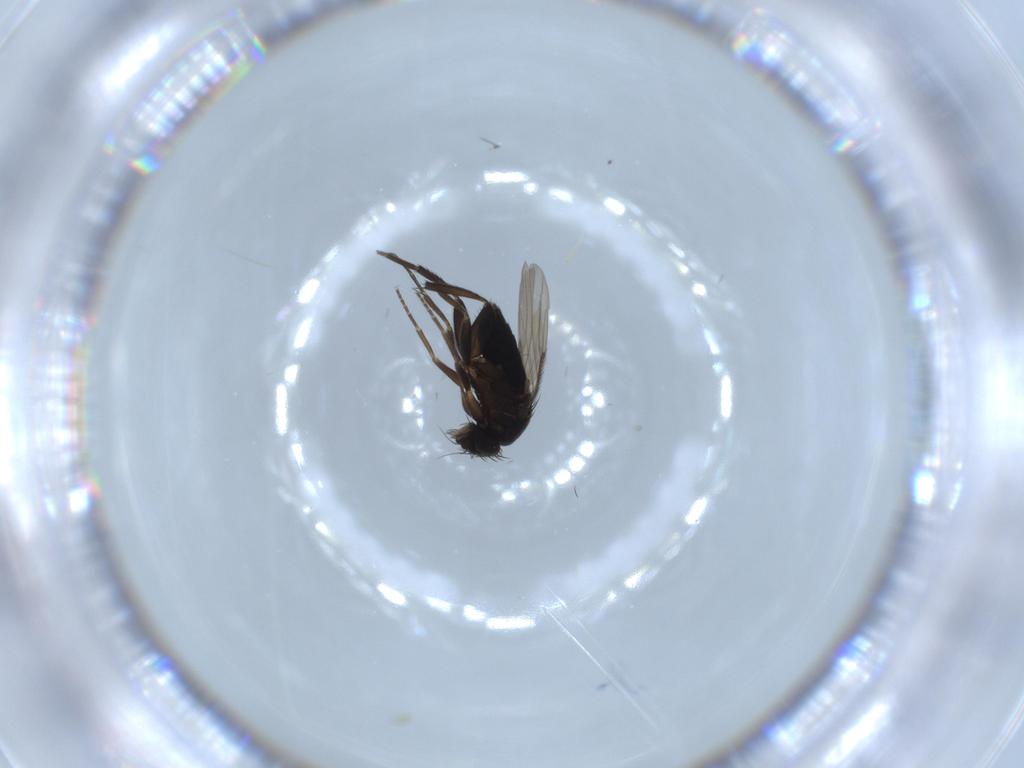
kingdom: Animalia
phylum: Arthropoda
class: Insecta
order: Diptera
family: Phoridae
